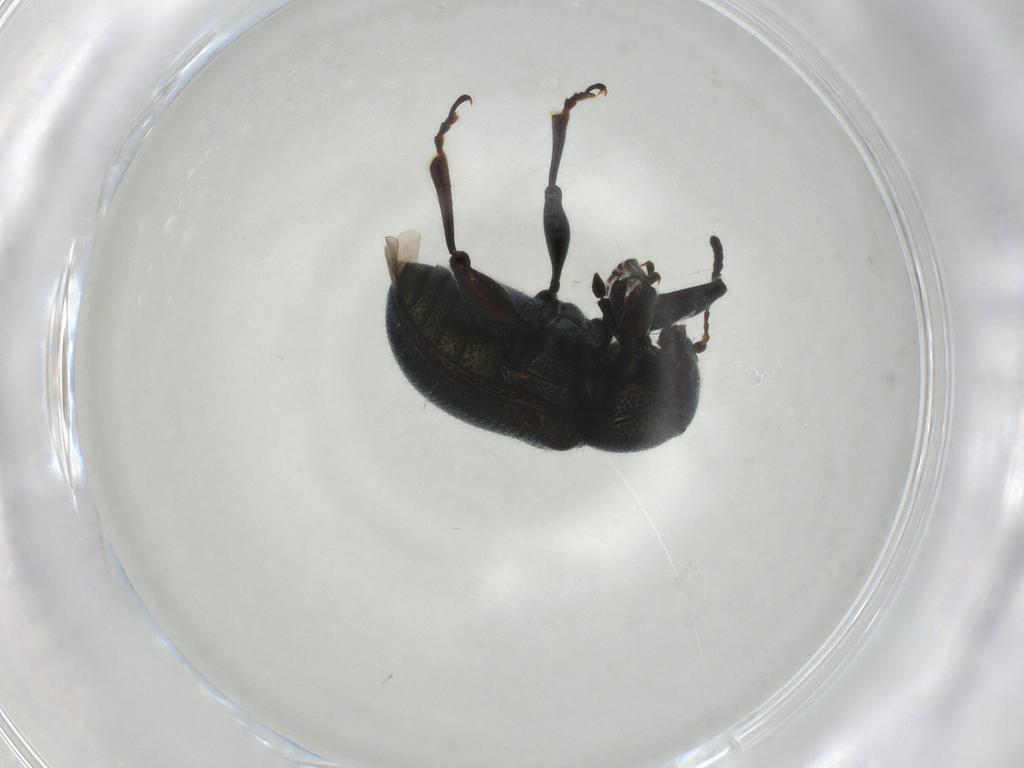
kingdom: Animalia
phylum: Arthropoda
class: Insecta
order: Coleoptera
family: Chrysomelidae
